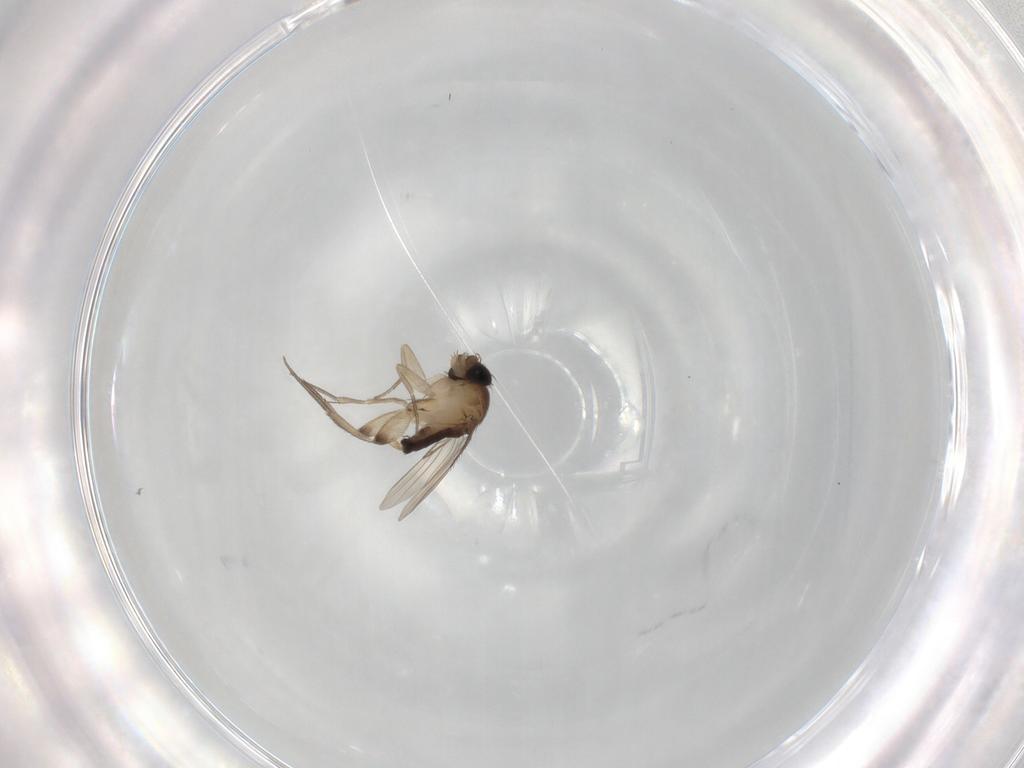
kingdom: Animalia
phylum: Arthropoda
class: Insecta
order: Diptera
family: Phoridae
